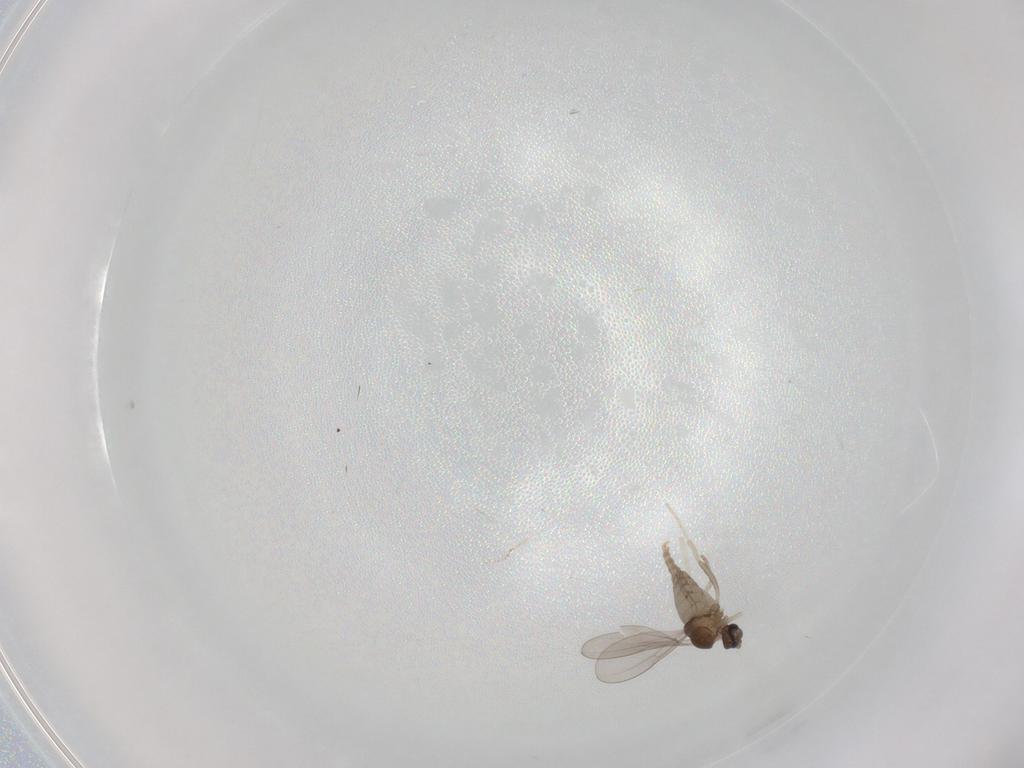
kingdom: Animalia
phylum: Arthropoda
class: Insecta
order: Diptera
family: Cecidomyiidae
